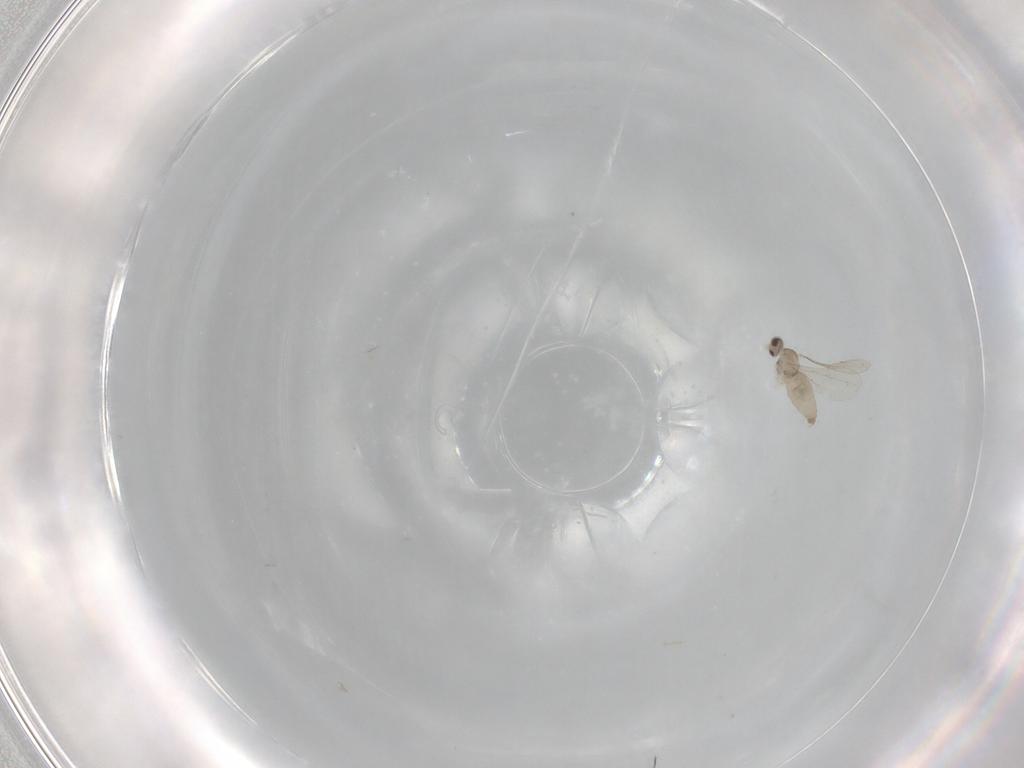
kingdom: Animalia
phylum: Arthropoda
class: Insecta
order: Diptera
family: Cecidomyiidae
